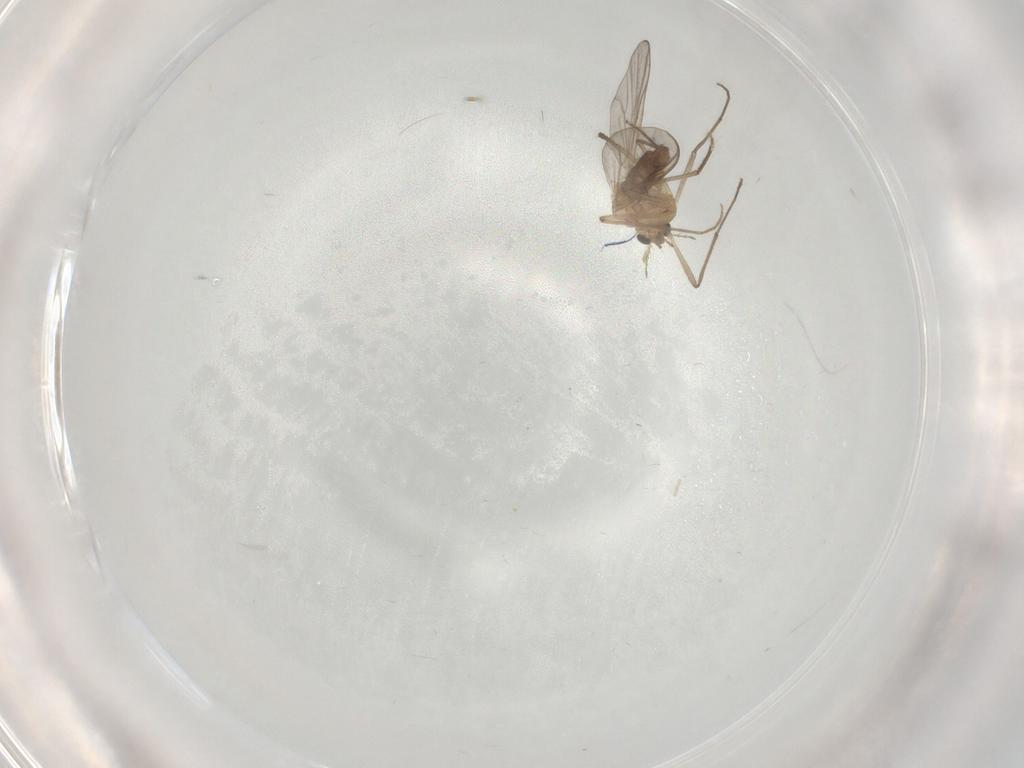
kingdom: Animalia
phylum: Arthropoda
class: Insecta
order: Diptera
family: Chironomidae
